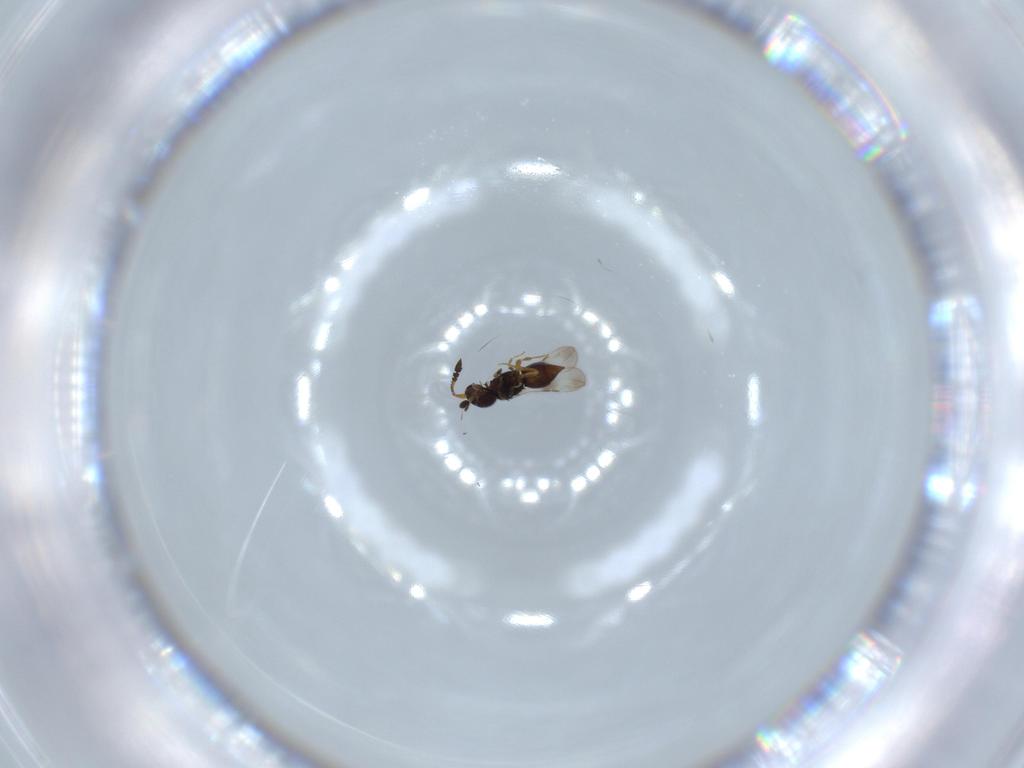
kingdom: Animalia
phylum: Arthropoda
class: Insecta
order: Hymenoptera
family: Ceraphronidae
